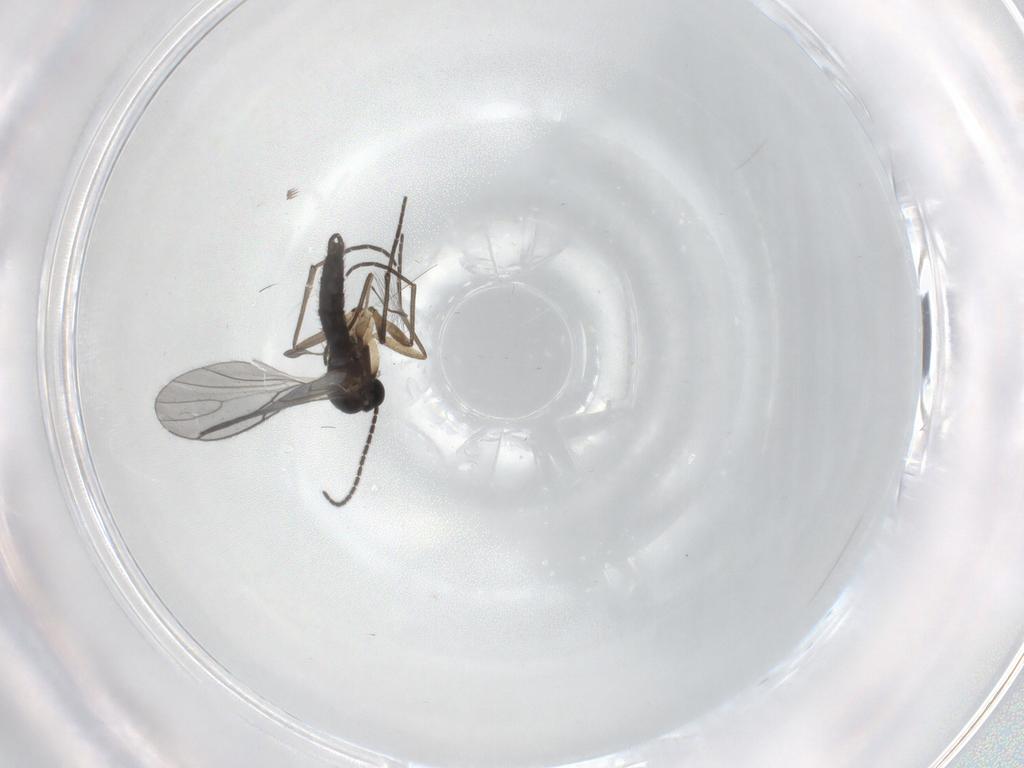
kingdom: Animalia
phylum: Arthropoda
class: Insecta
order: Diptera
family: Sciaridae
